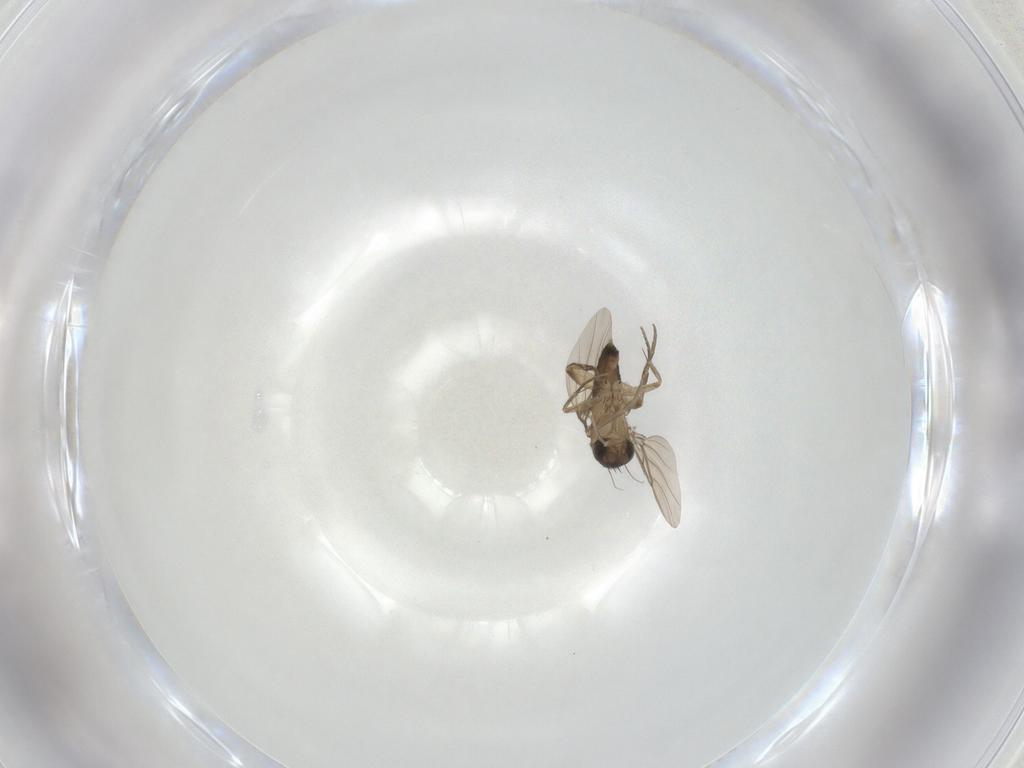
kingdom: Animalia
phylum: Arthropoda
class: Insecta
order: Diptera
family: Phoridae
